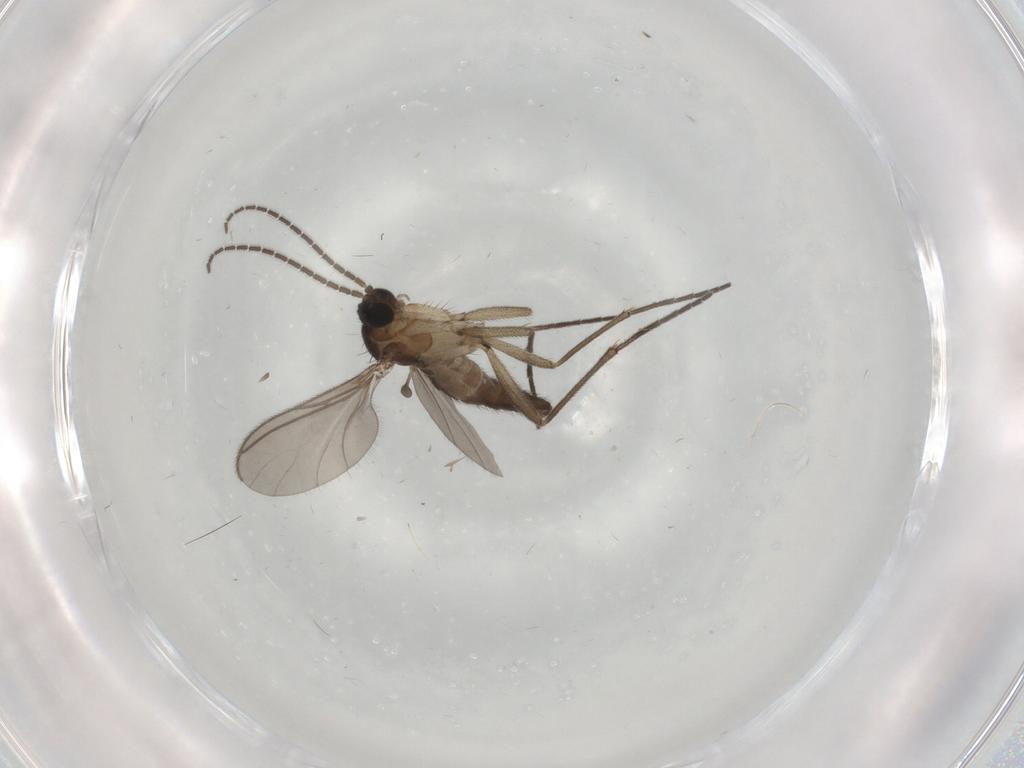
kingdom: Animalia
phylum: Arthropoda
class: Insecta
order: Diptera
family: Sciaridae
